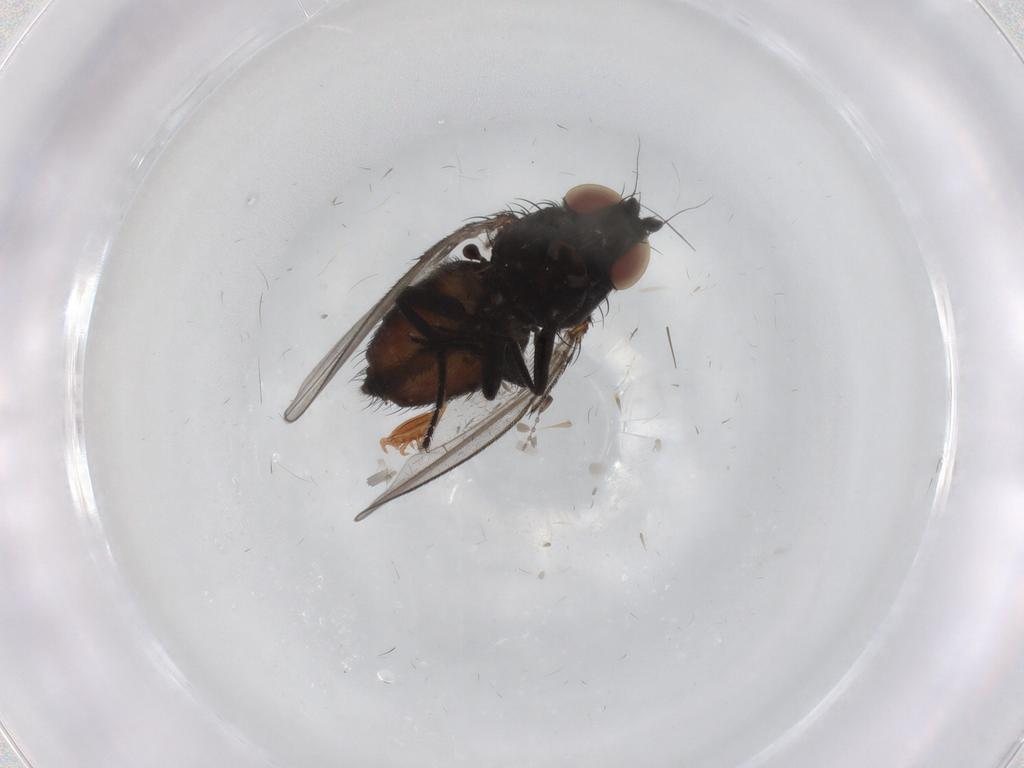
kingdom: Animalia
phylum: Arthropoda
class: Insecta
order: Diptera
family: Milichiidae
